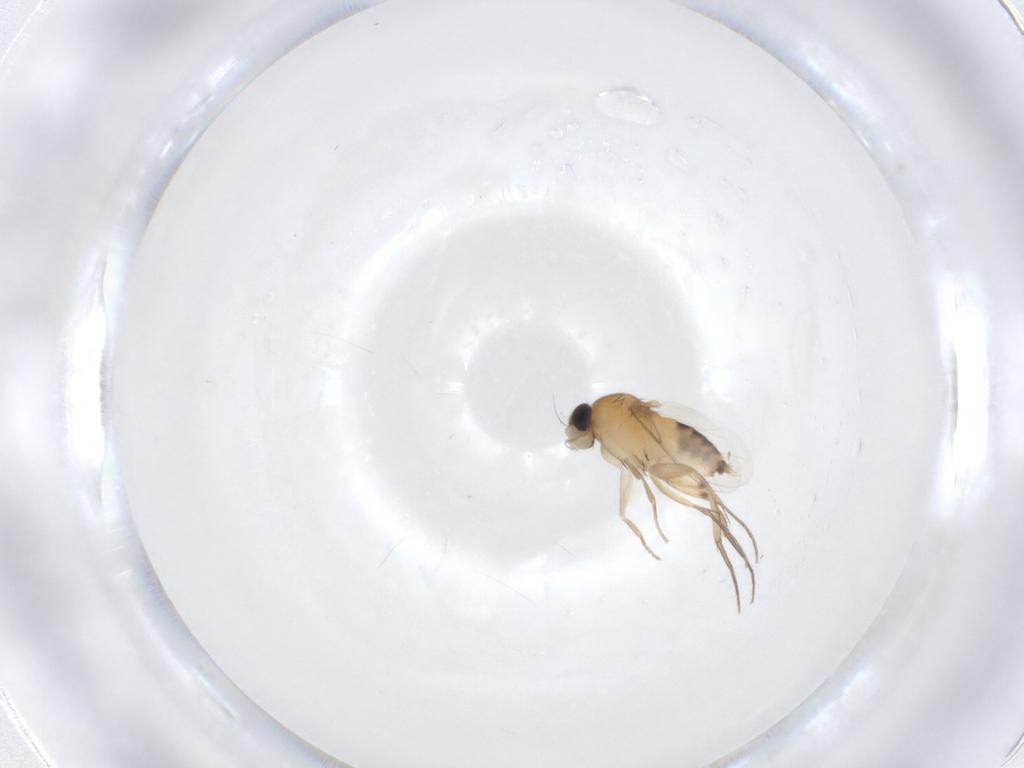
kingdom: Animalia
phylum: Arthropoda
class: Insecta
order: Diptera
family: Phoridae
